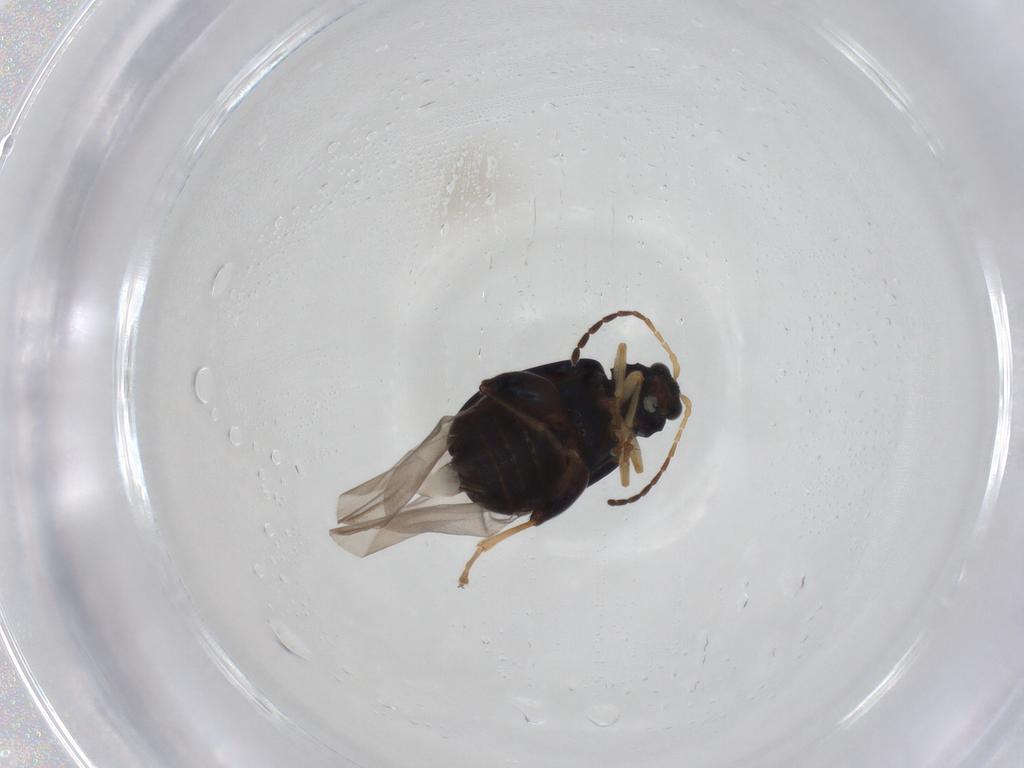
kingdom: Animalia
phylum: Arthropoda
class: Insecta
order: Coleoptera
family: Chrysomelidae
